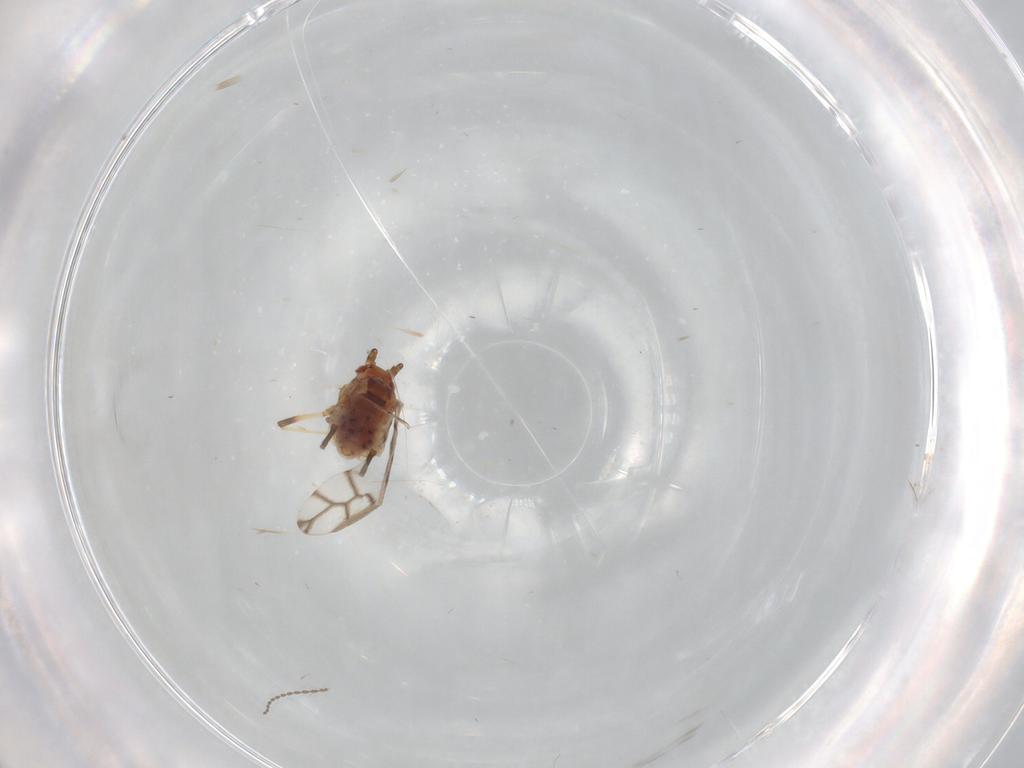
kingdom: Animalia
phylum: Arthropoda
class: Insecta
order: Hemiptera
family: Aphididae
